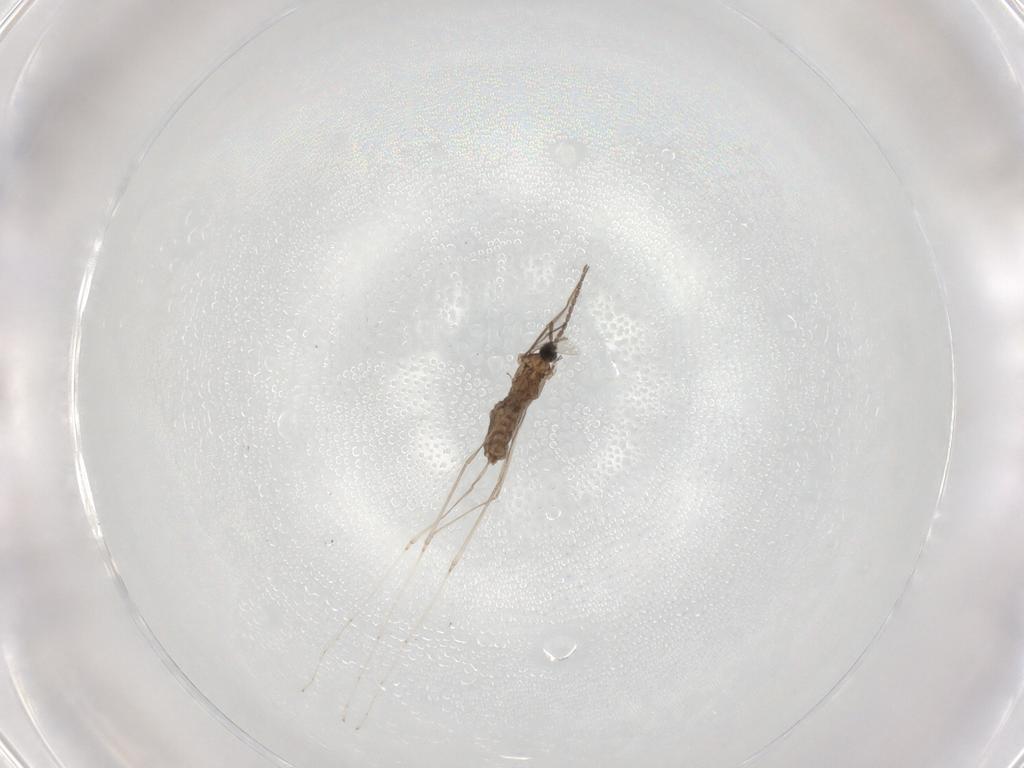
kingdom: Animalia
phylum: Arthropoda
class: Insecta
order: Diptera
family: Cecidomyiidae
